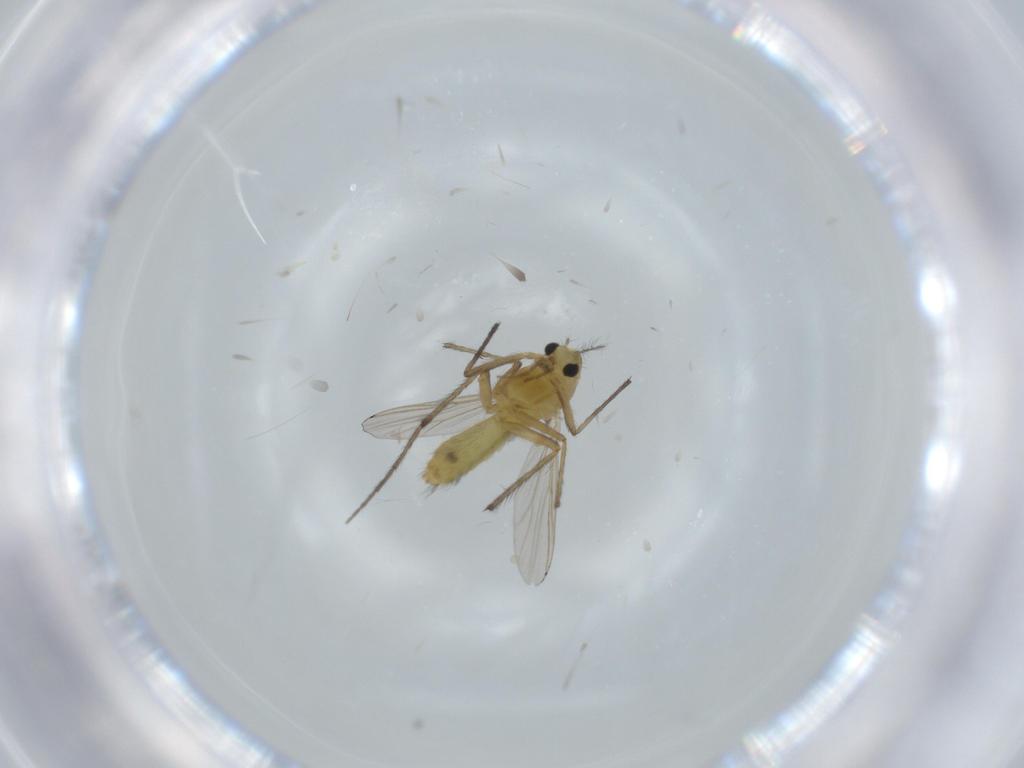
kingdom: Animalia
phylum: Arthropoda
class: Insecta
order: Diptera
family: Chironomidae
